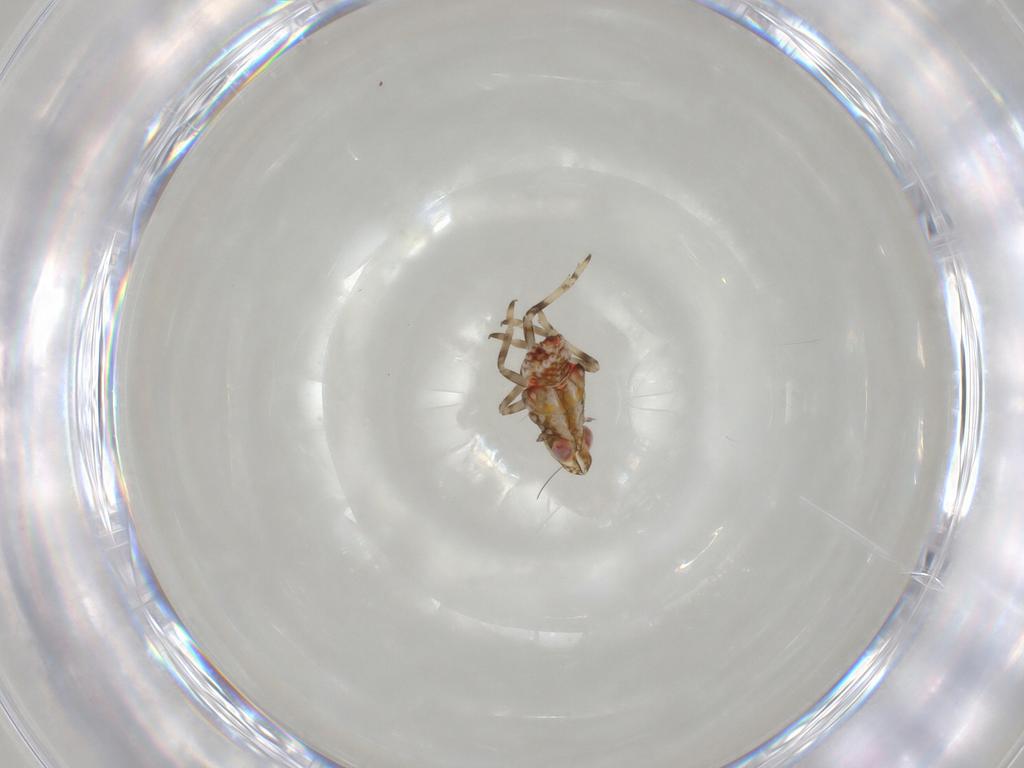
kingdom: Animalia
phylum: Arthropoda
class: Insecta
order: Hemiptera
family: Tropiduchidae
